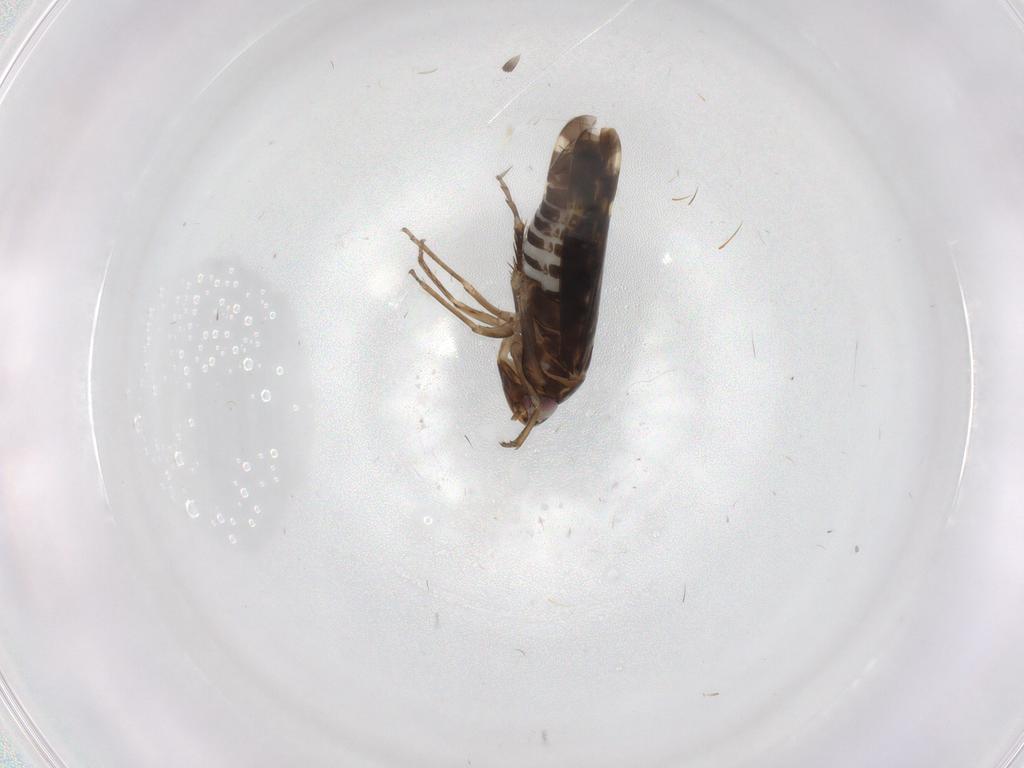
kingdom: Animalia
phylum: Arthropoda
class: Insecta
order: Hemiptera
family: Cicadellidae
